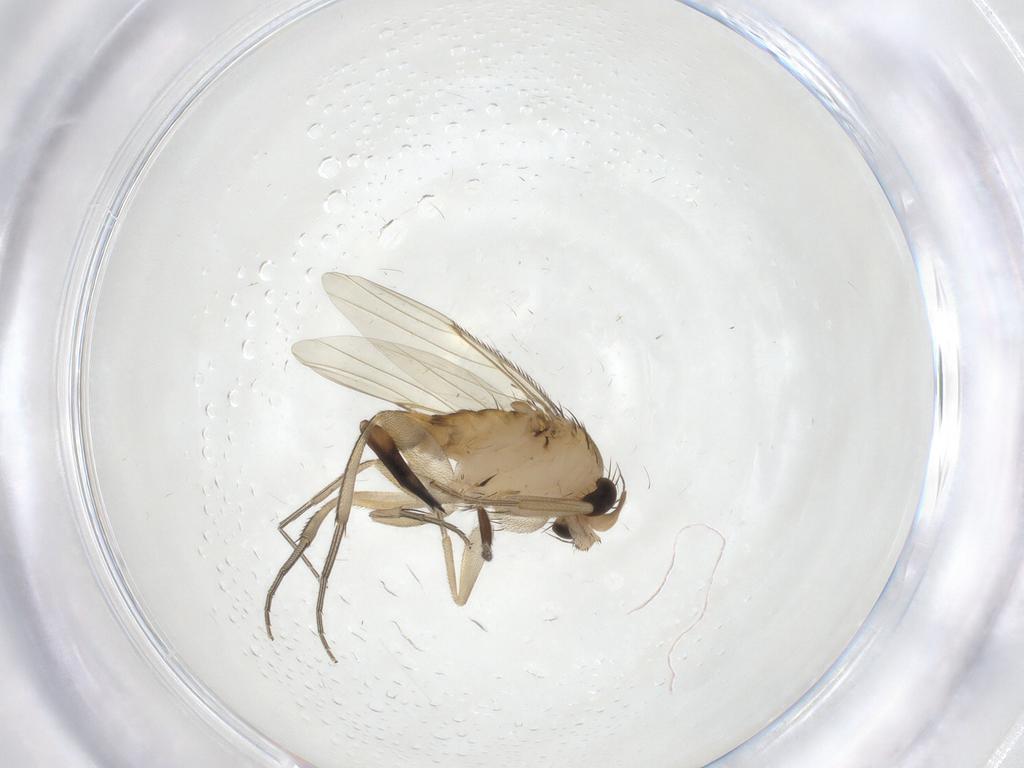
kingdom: Animalia
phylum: Arthropoda
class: Insecta
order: Diptera
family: Phoridae
